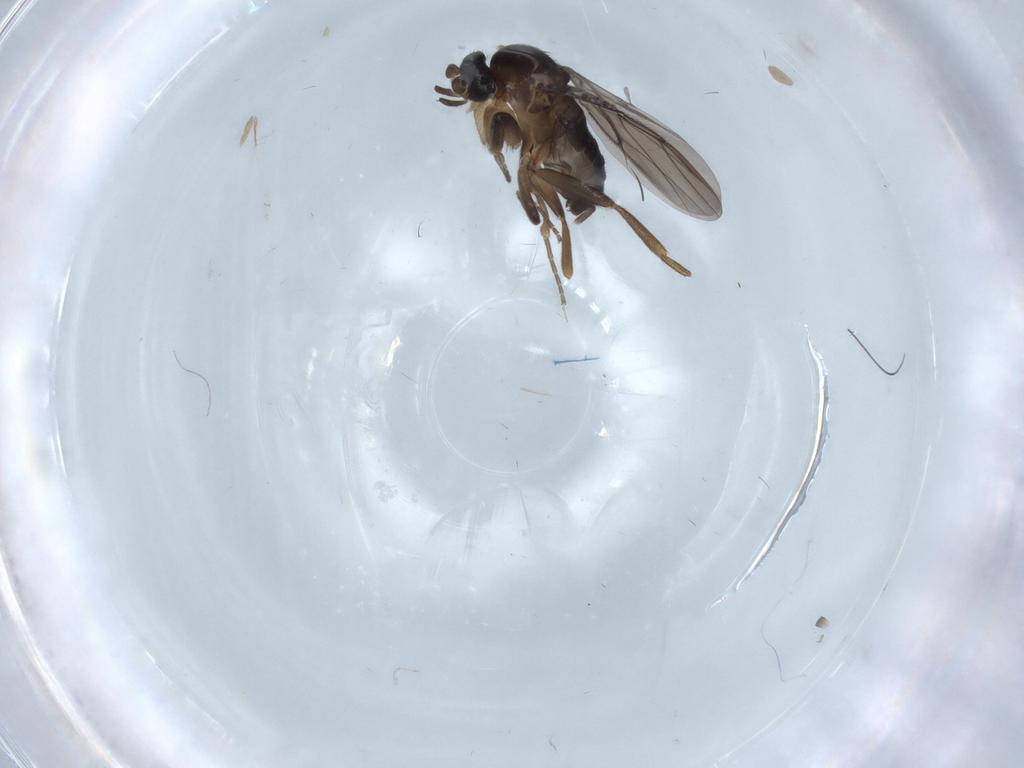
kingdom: Animalia
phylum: Arthropoda
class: Insecta
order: Diptera
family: Phoridae
